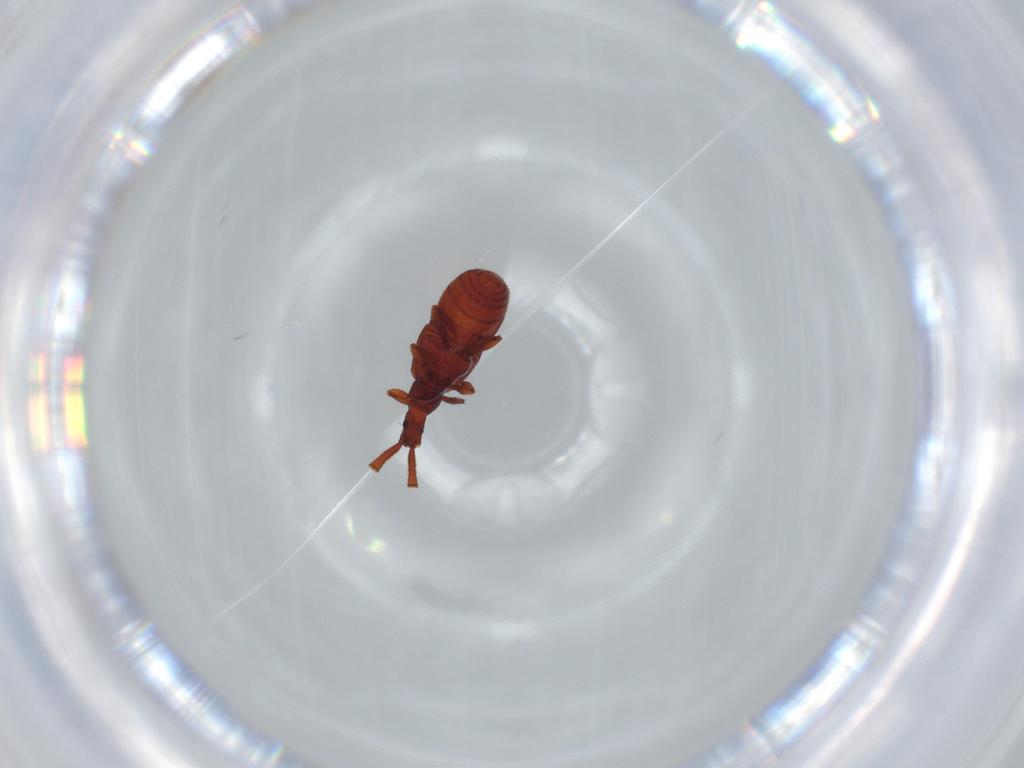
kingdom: Animalia
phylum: Arthropoda
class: Insecta
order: Coleoptera
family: Staphylinidae
